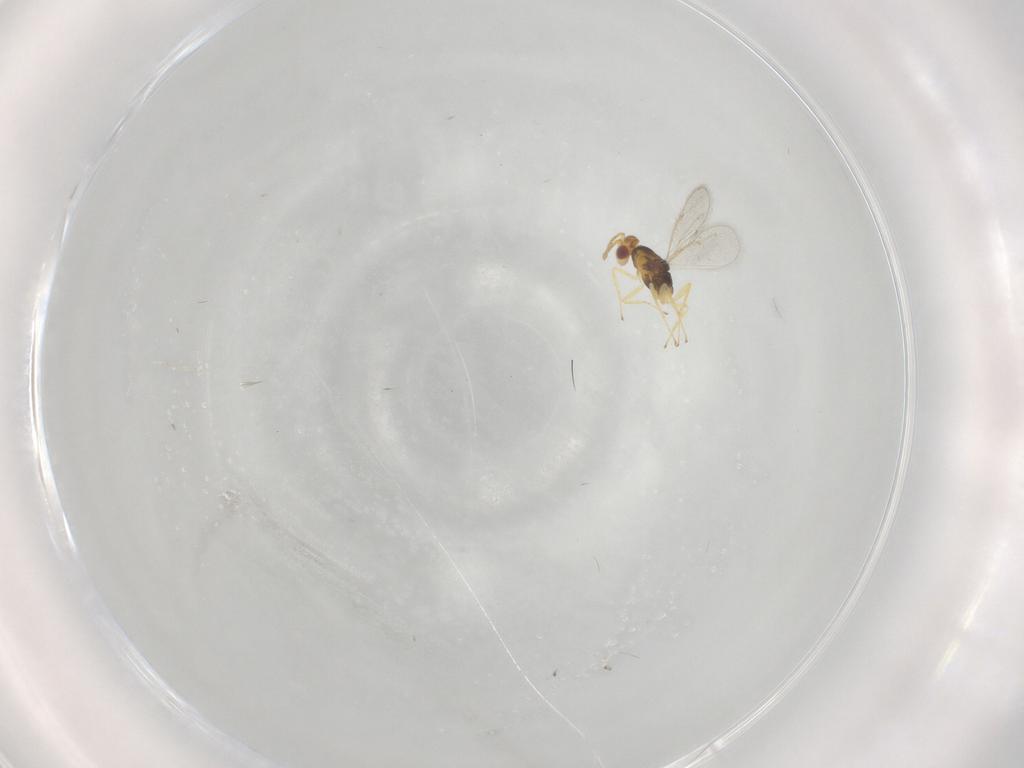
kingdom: Animalia
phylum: Arthropoda
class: Insecta
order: Hymenoptera
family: Eulophidae
